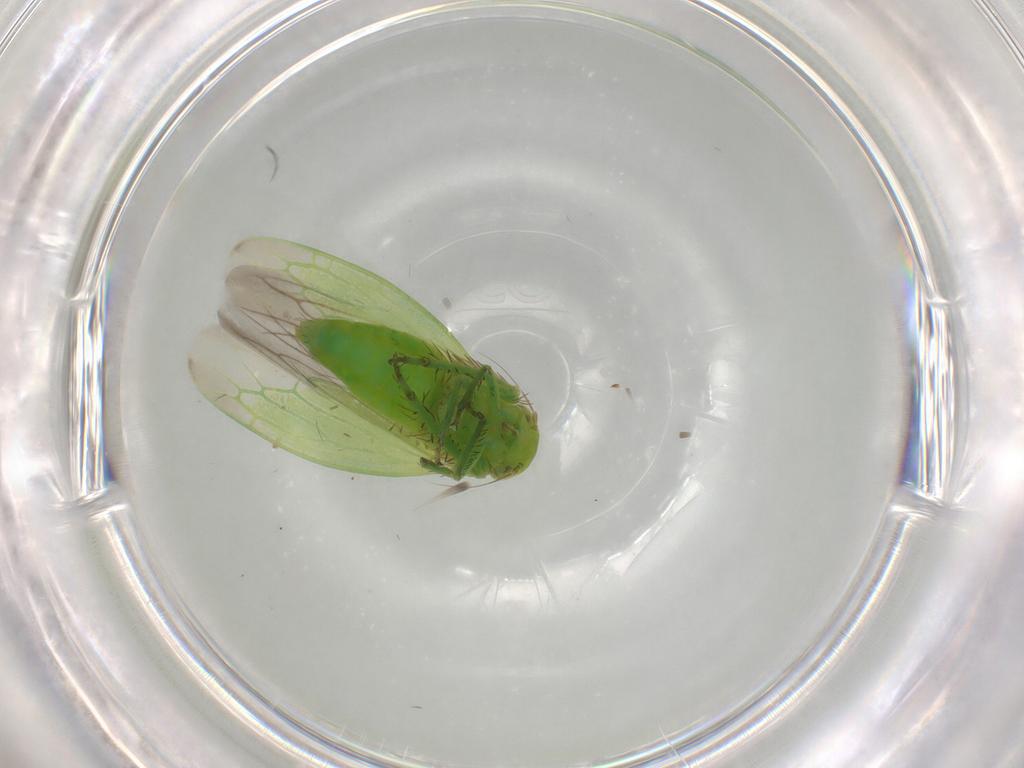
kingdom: Animalia
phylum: Arthropoda
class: Insecta
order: Hemiptera
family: Cicadellidae
